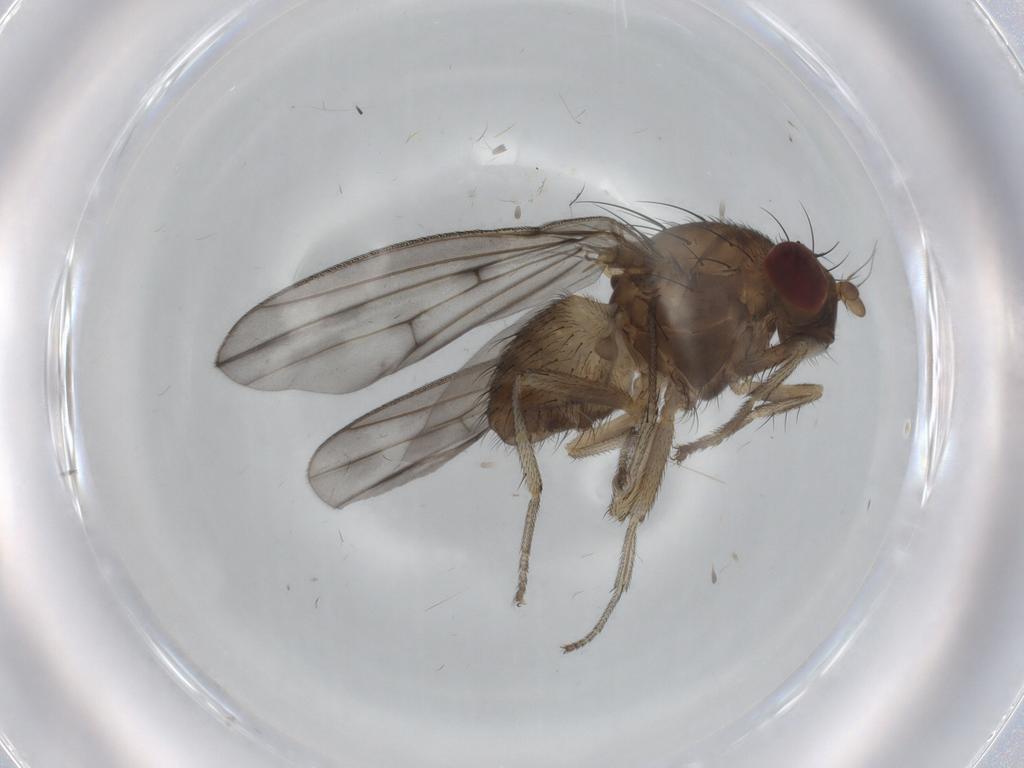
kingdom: Animalia
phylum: Arthropoda
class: Insecta
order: Diptera
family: Limoniidae
